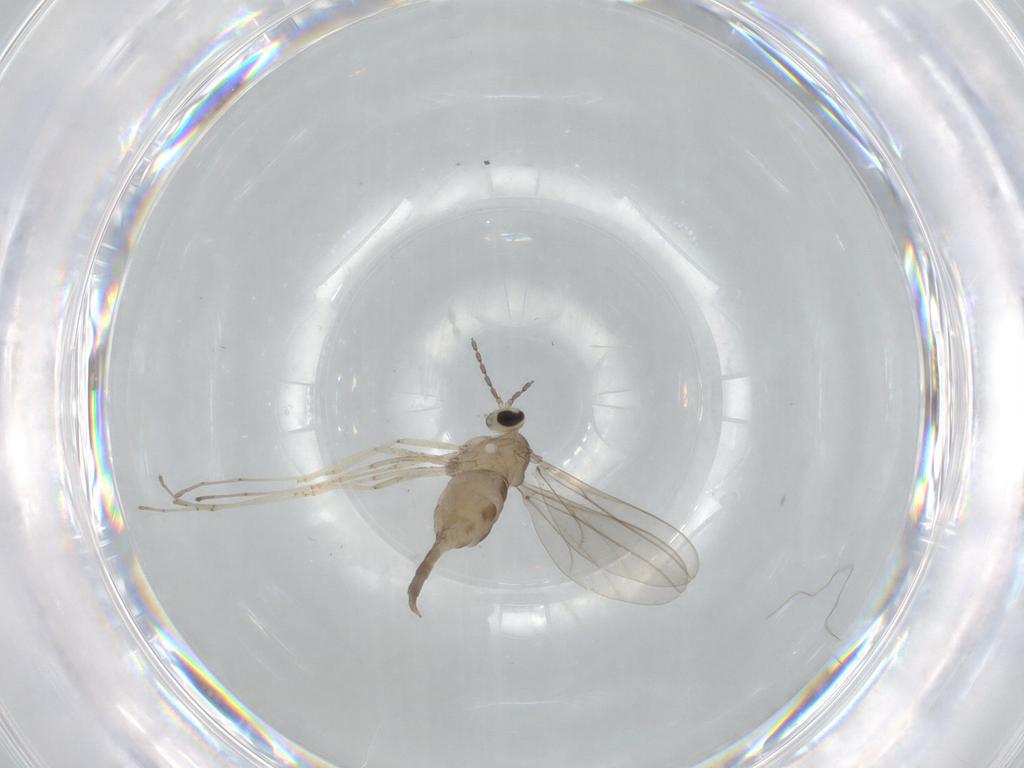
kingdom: Animalia
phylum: Arthropoda
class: Insecta
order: Diptera
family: Cecidomyiidae
